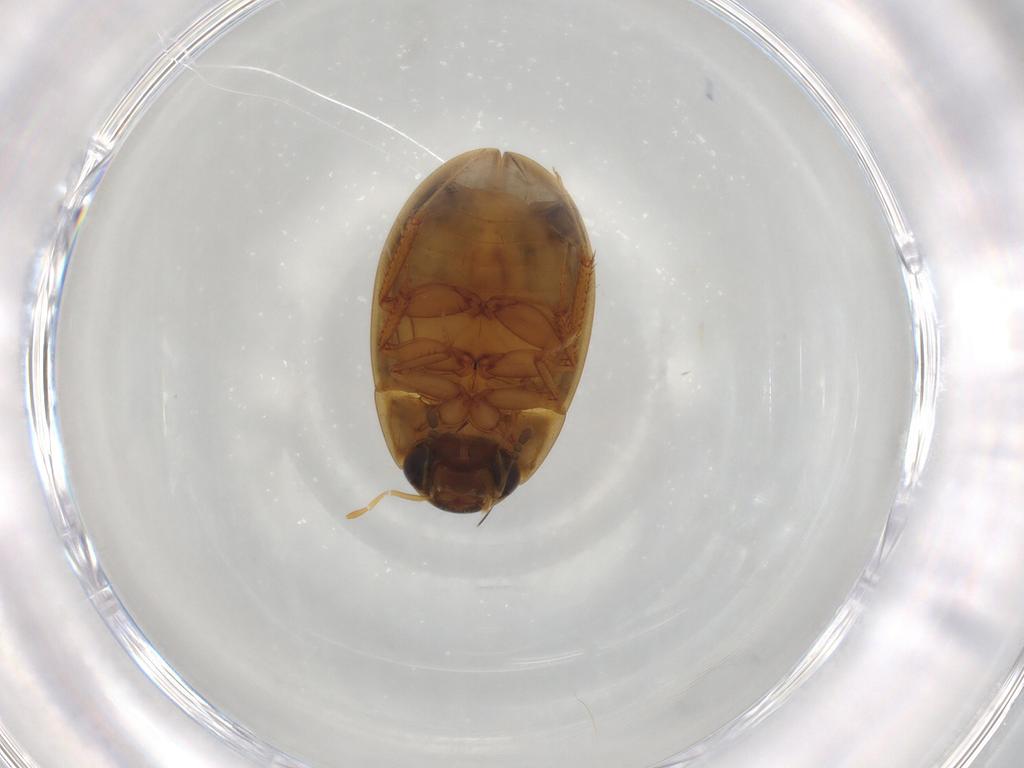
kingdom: Animalia
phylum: Arthropoda
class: Insecta
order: Coleoptera
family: Hydrophilidae
